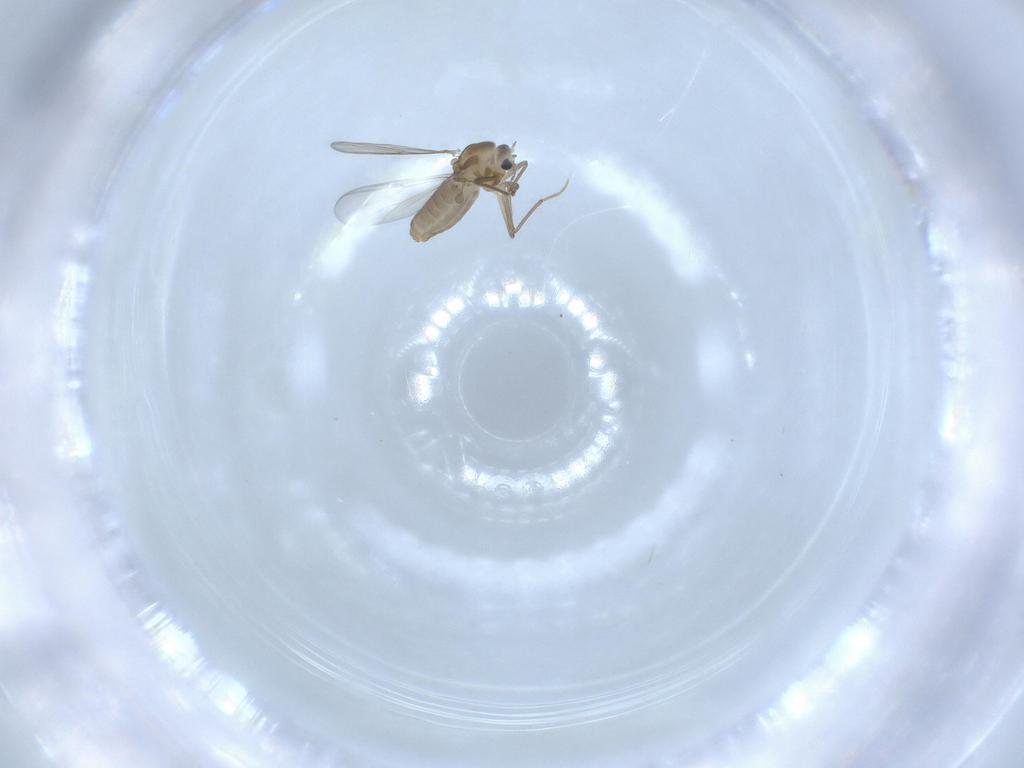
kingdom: Animalia
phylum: Arthropoda
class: Insecta
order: Diptera
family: Chironomidae
